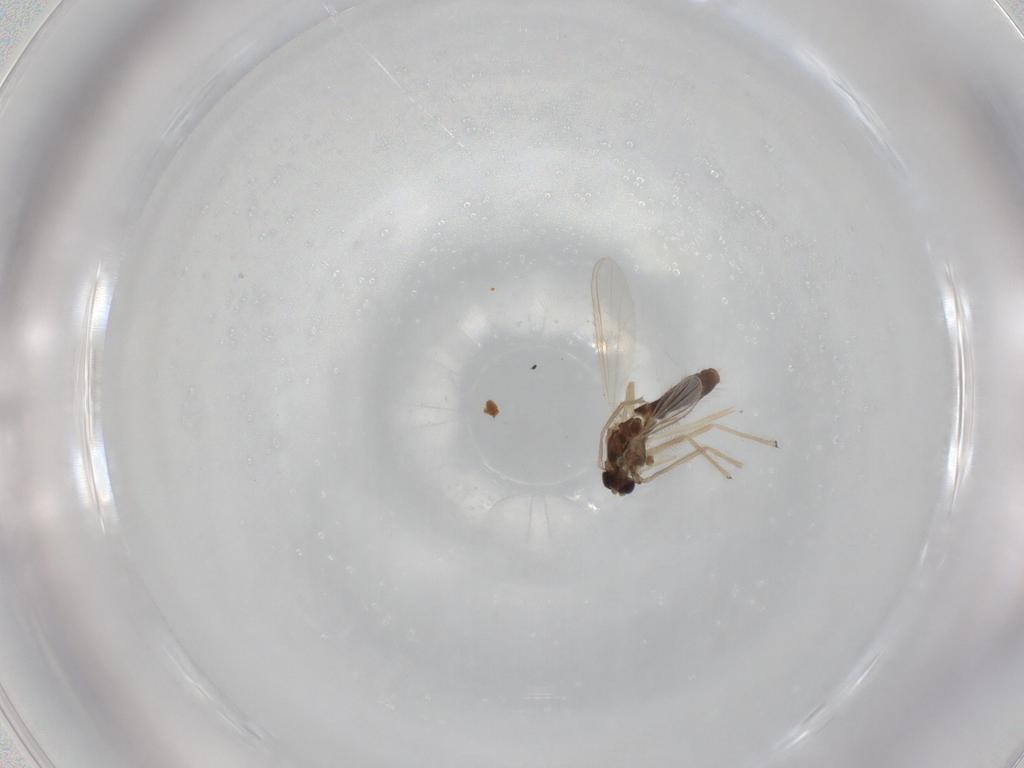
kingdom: Animalia
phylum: Arthropoda
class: Insecta
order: Diptera
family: Chironomidae
